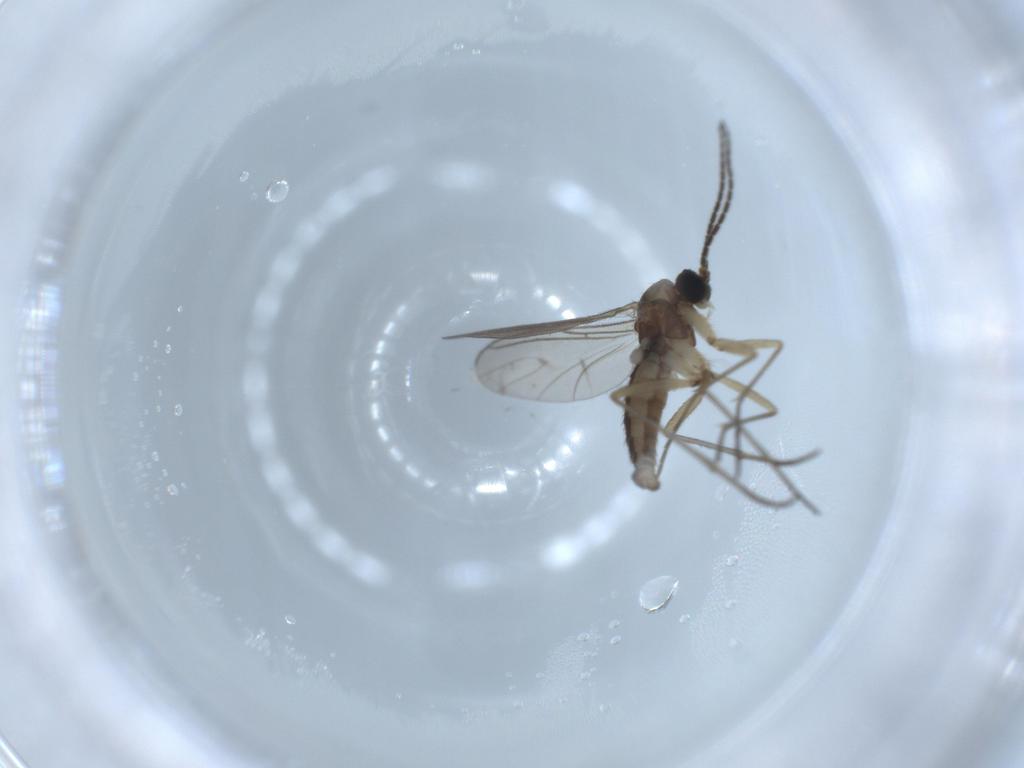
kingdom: Animalia
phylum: Arthropoda
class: Insecta
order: Diptera
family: Sciaridae
